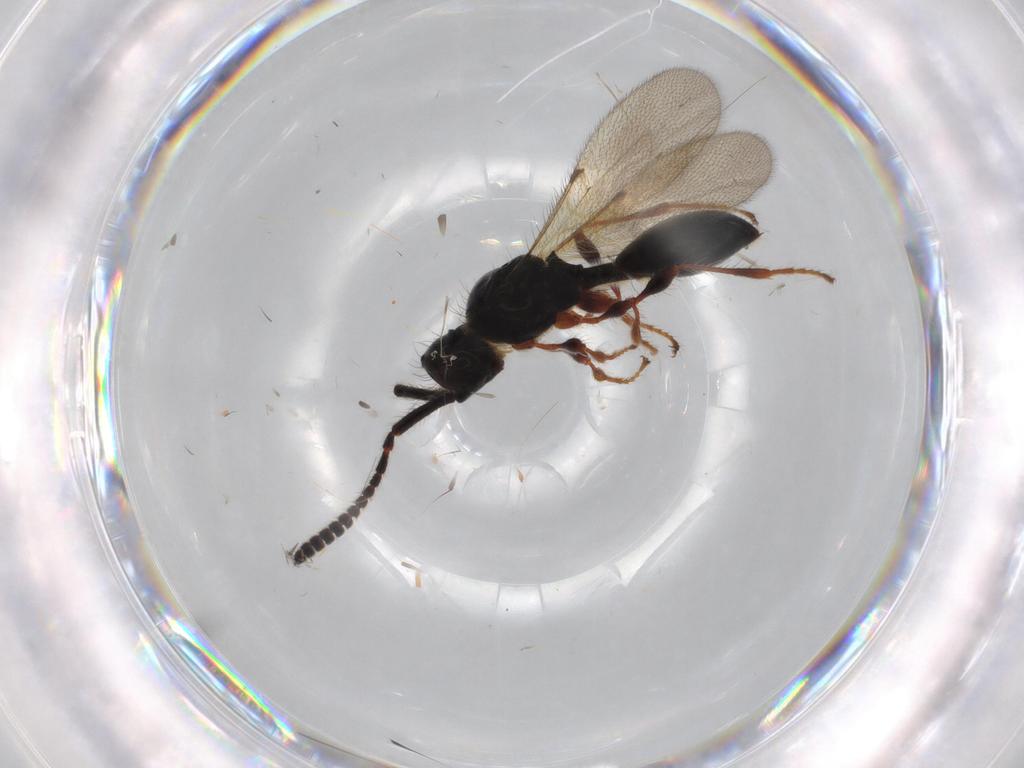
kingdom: Animalia
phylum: Arthropoda
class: Insecta
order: Hymenoptera
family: Diapriidae
